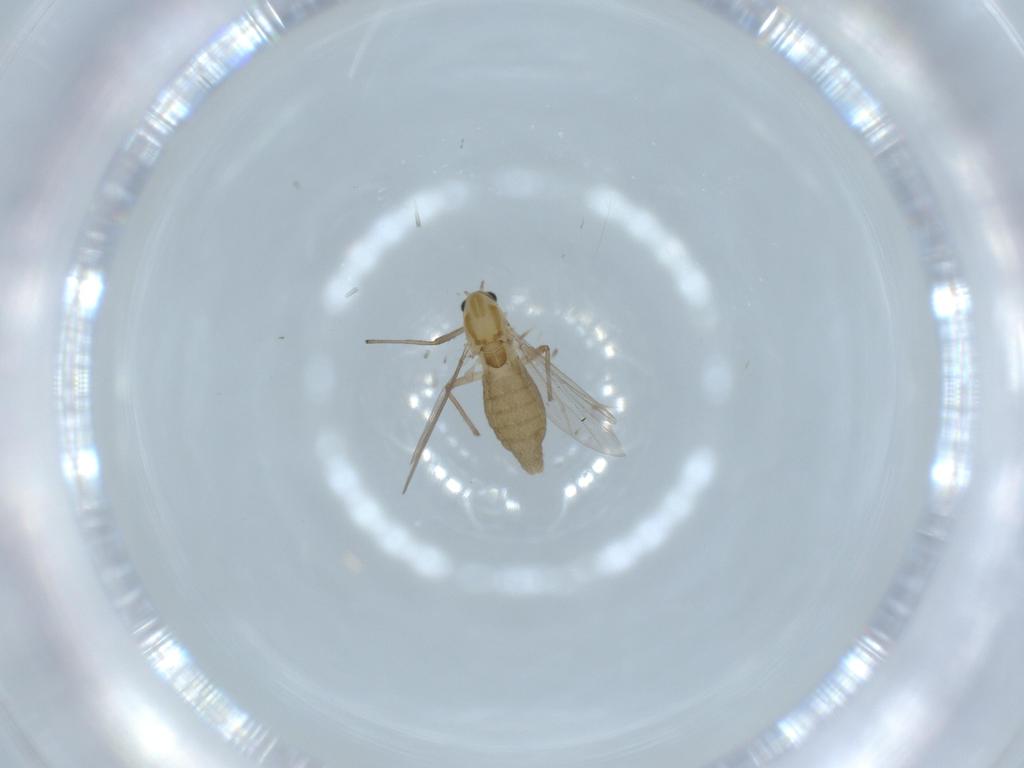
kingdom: Animalia
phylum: Arthropoda
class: Insecta
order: Diptera
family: Chironomidae
